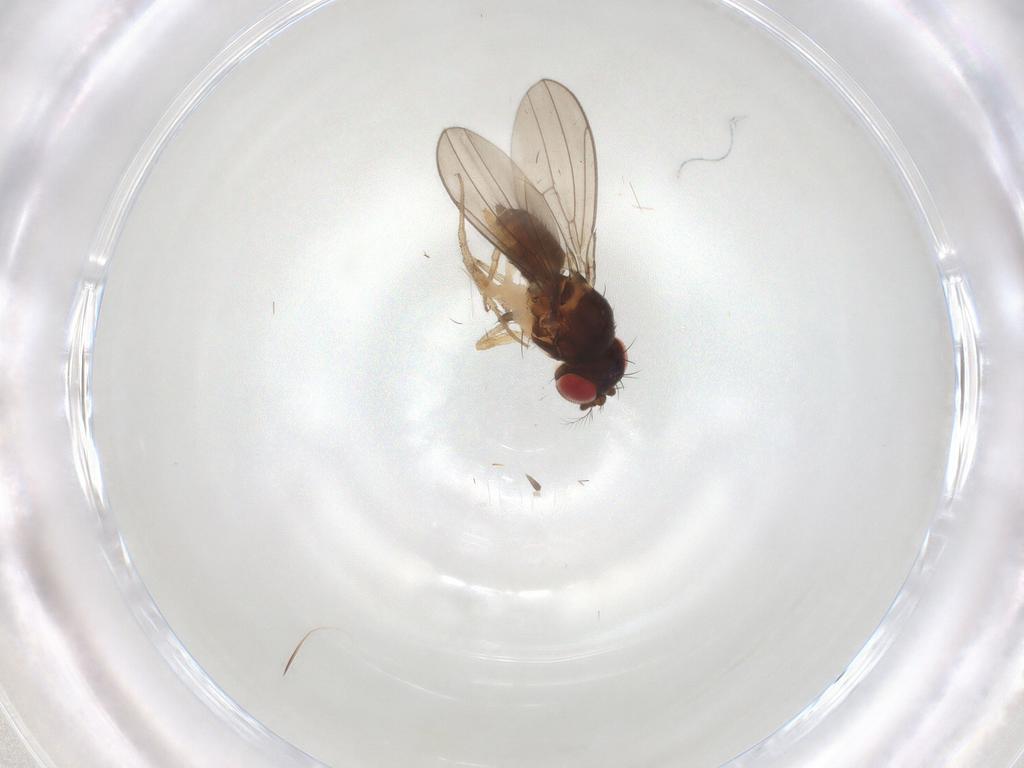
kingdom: Animalia
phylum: Arthropoda
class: Insecta
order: Diptera
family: Drosophilidae
